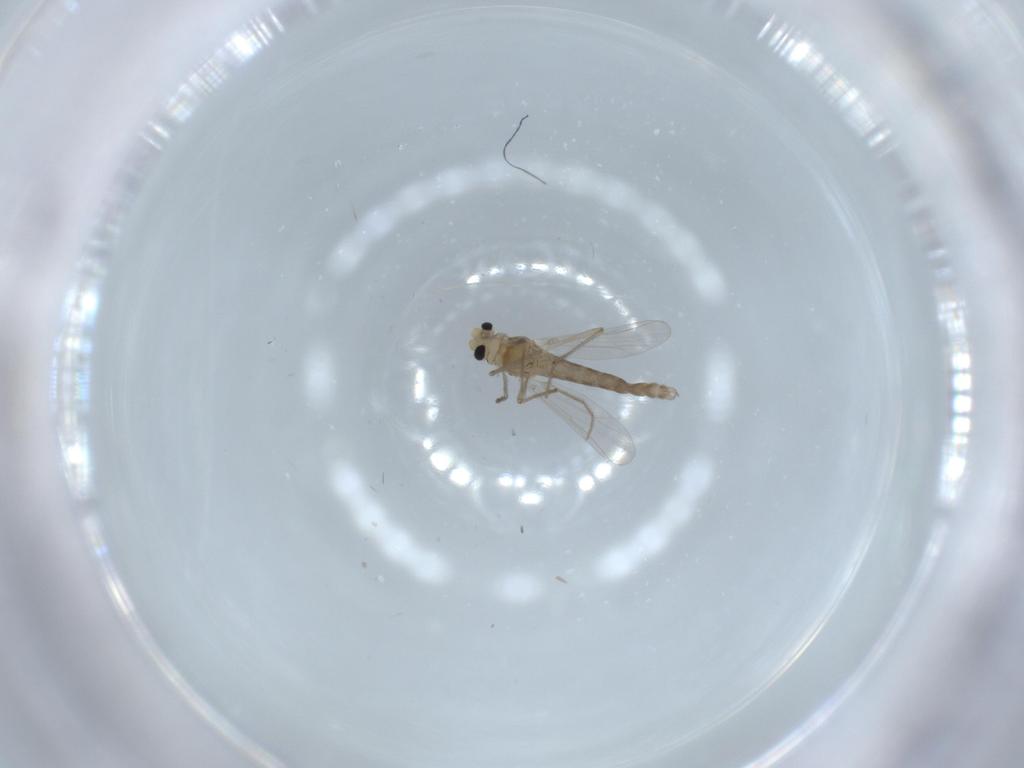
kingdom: Animalia
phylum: Arthropoda
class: Insecta
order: Diptera
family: Chironomidae
